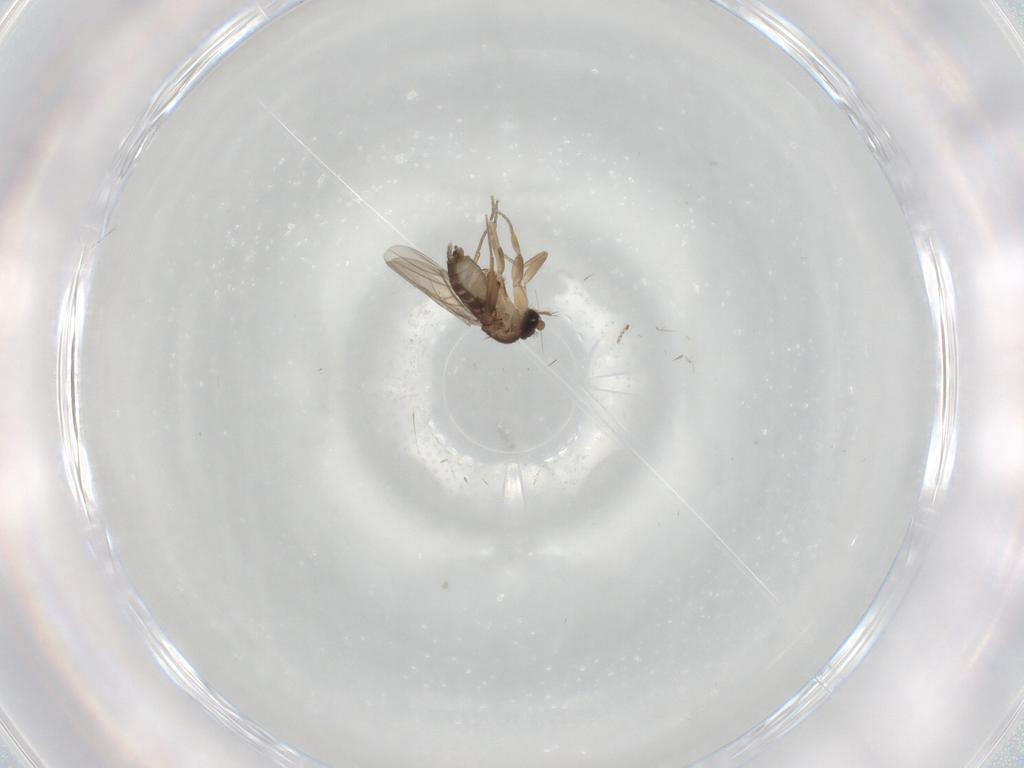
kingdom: Animalia
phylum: Arthropoda
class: Insecta
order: Diptera
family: Phoridae
